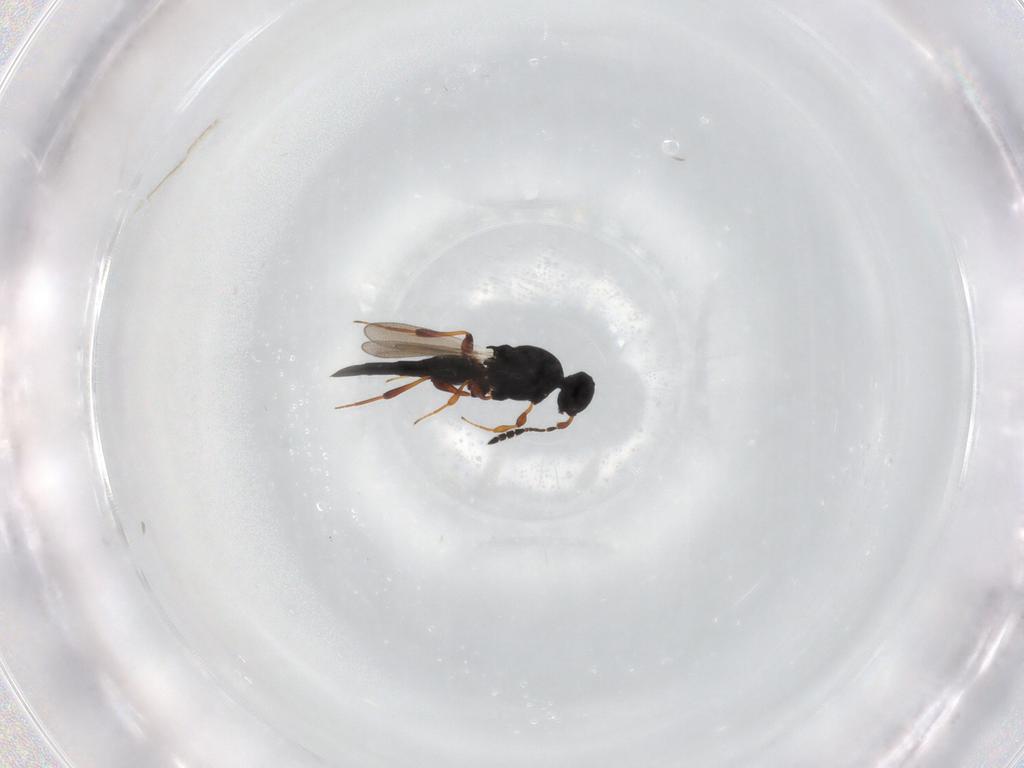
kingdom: Animalia
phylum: Arthropoda
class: Insecta
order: Hymenoptera
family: Platygastridae
